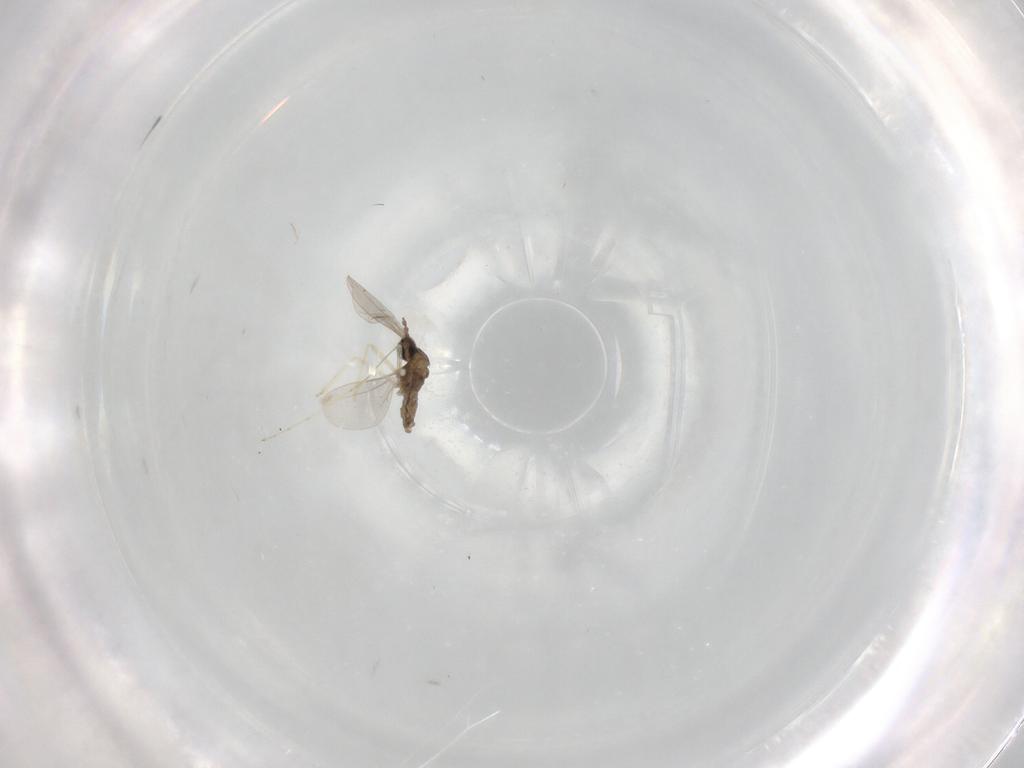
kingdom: Animalia
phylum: Arthropoda
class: Insecta
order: Diptera
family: Cecidomyiidae
